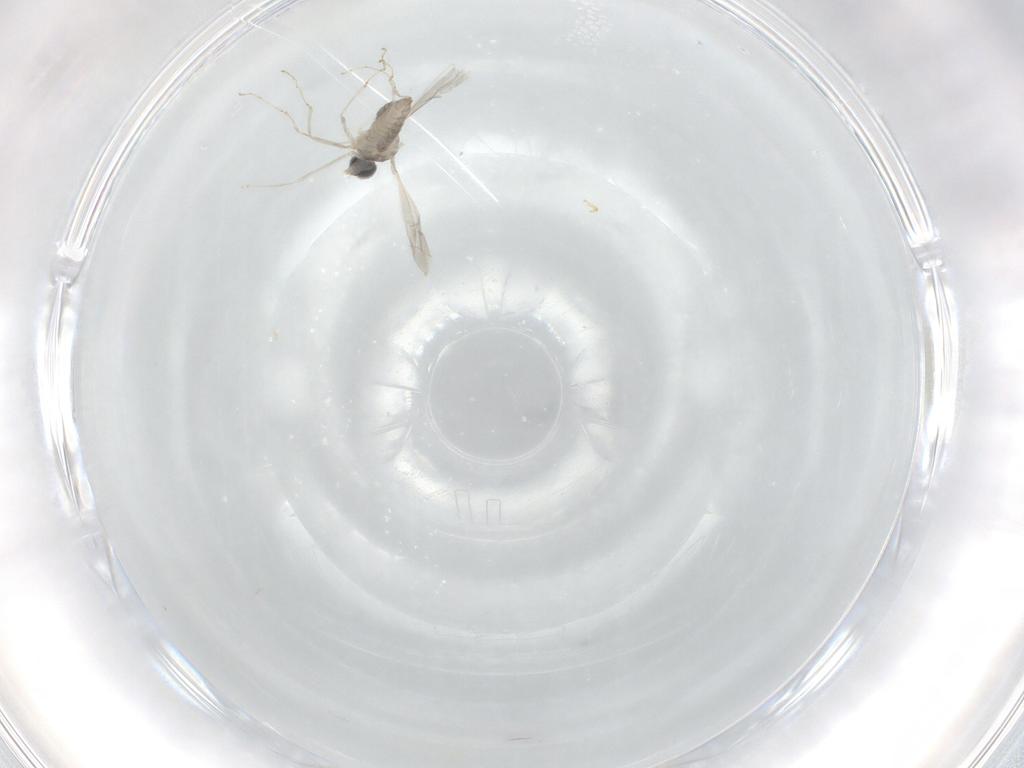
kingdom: Animalia
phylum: Arthropoda
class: Insecta
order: Diptera
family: Cecidomyiidae
